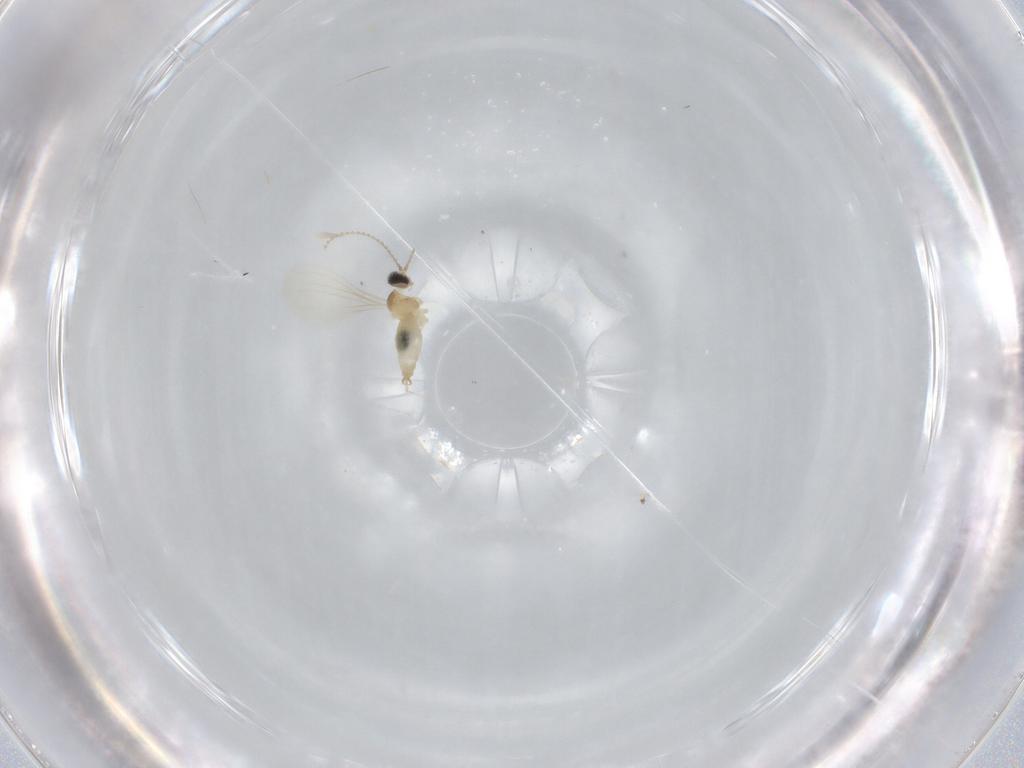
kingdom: Animalia
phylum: Arthropoda
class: Insecta
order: Diptera
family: Cecidomyiidae
